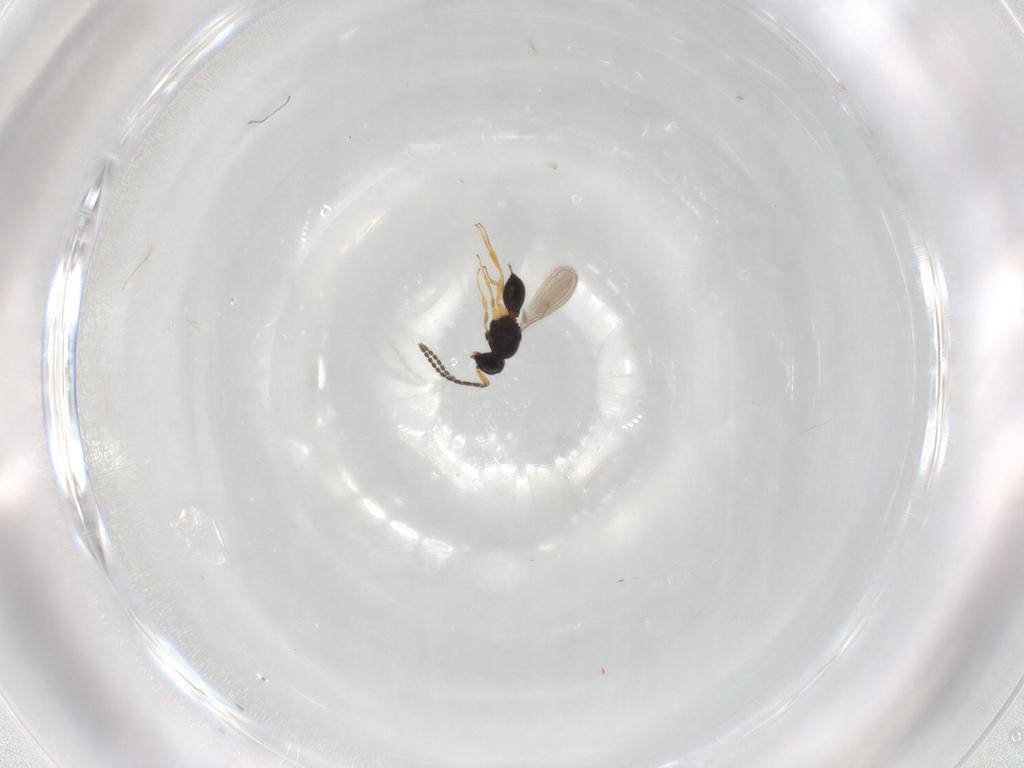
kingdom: Animalia
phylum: Arthropoda
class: Insecta
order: Hymenoptera
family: Scelionidae
